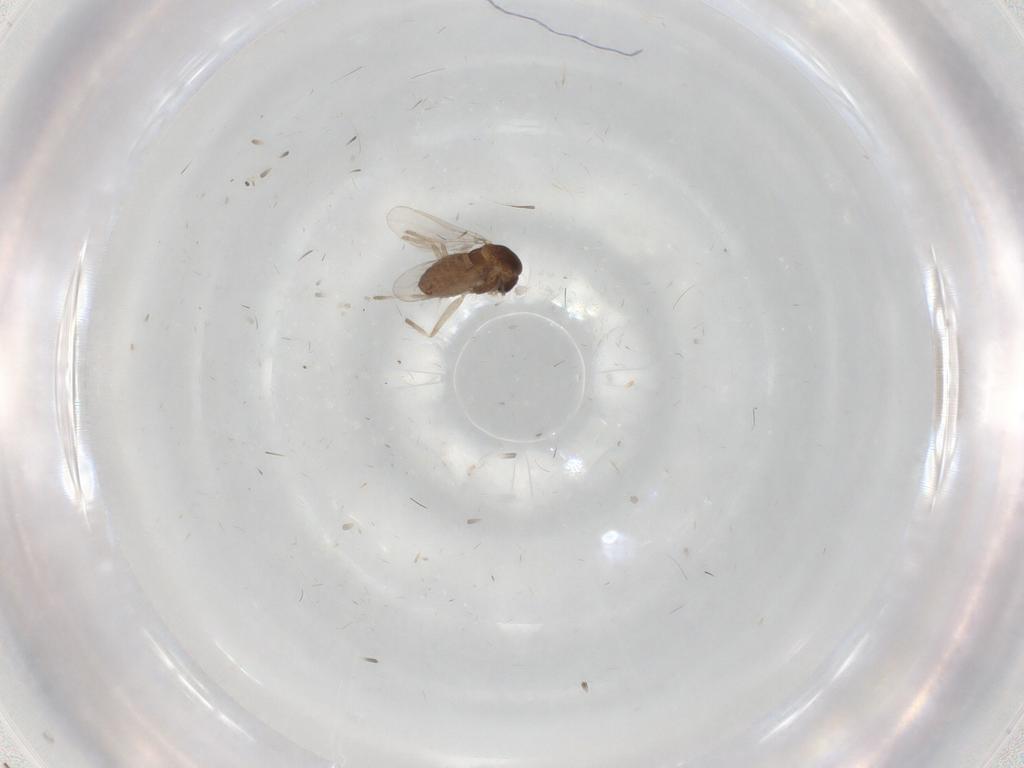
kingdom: Animalia
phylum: Arthropoda
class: Insecta
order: Diptera
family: Chironomidae
